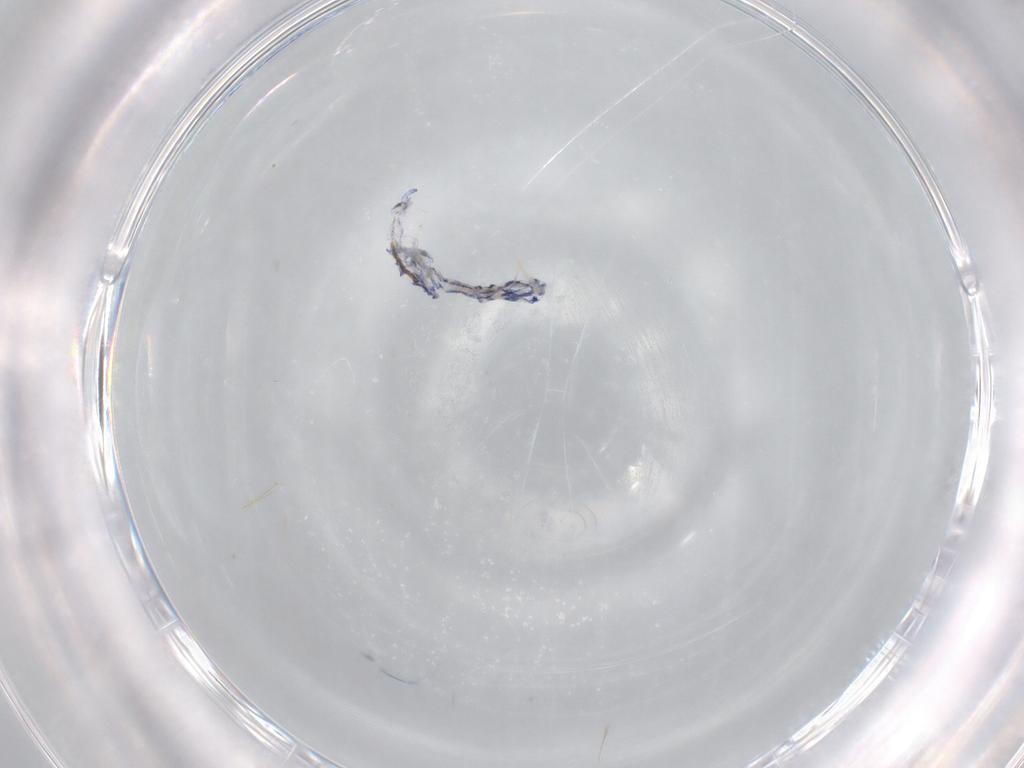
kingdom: Animalia
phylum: Arthropoda
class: Collembola
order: Entomobryomorpha
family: Entomobryidae
